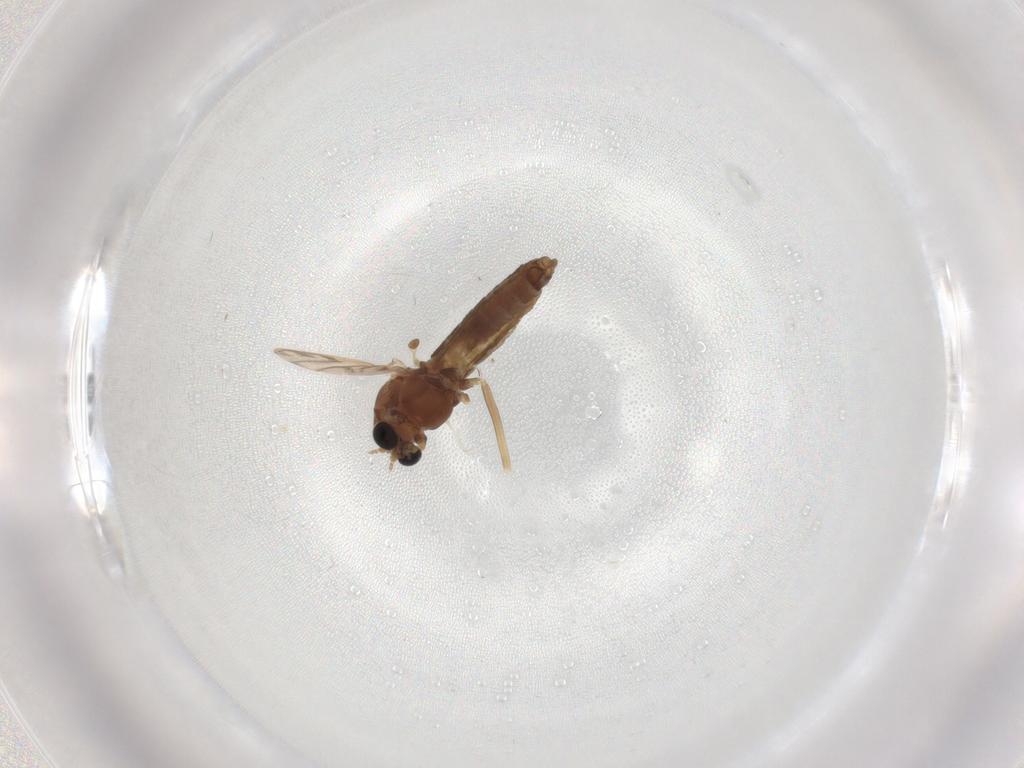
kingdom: Animalia
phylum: Arthropoda
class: Insecta
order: Diptera
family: Chironomidae
